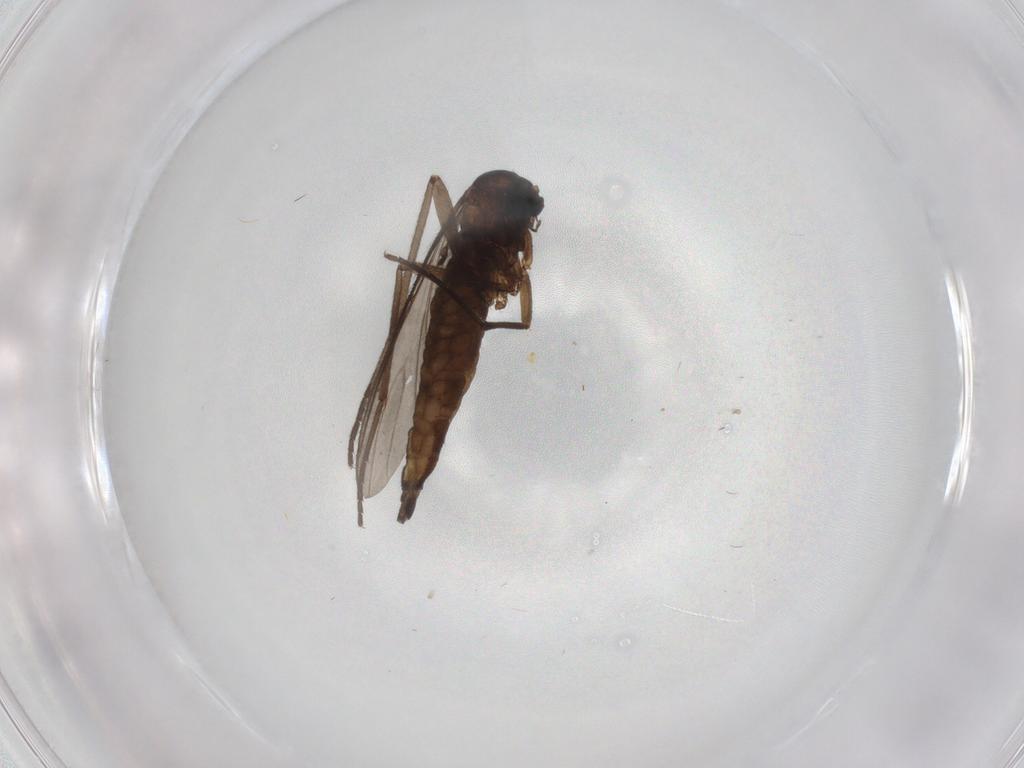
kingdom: Animalia
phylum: Arthropoda
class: Insecta
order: Diptera
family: Sciaridae
